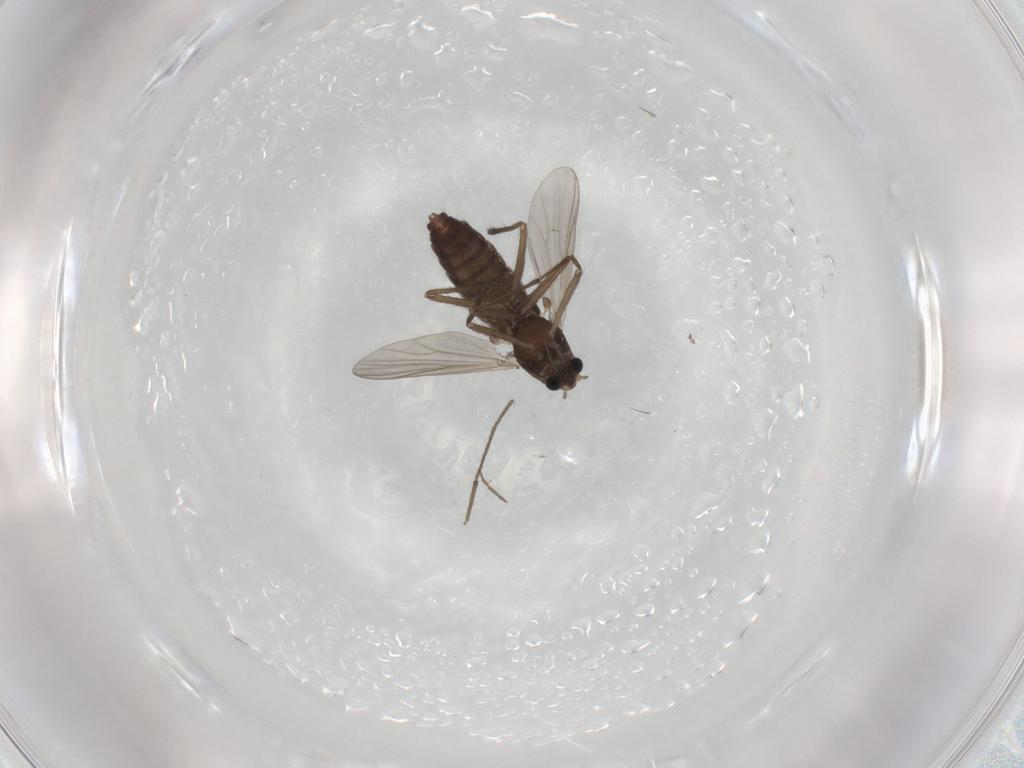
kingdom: Animalia
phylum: Arthropoda
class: Insecta
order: Diptera
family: Chironomidae
